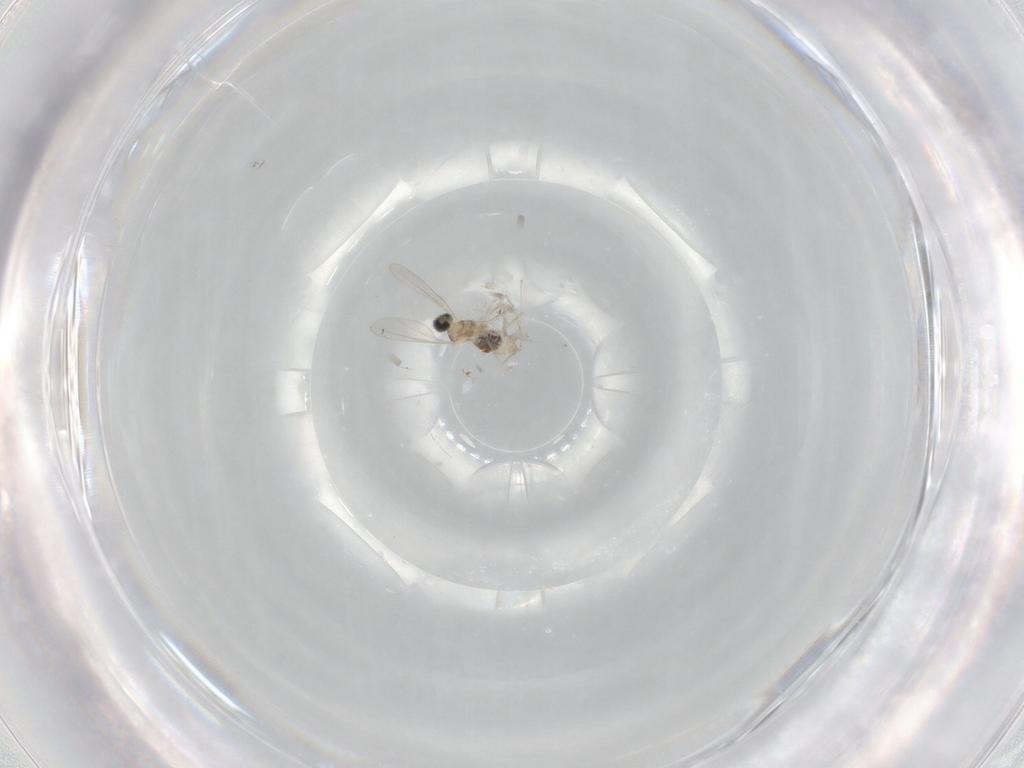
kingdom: Animalia
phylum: Arthropoda
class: Insecta
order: Diptera
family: Cecidomyiidae
